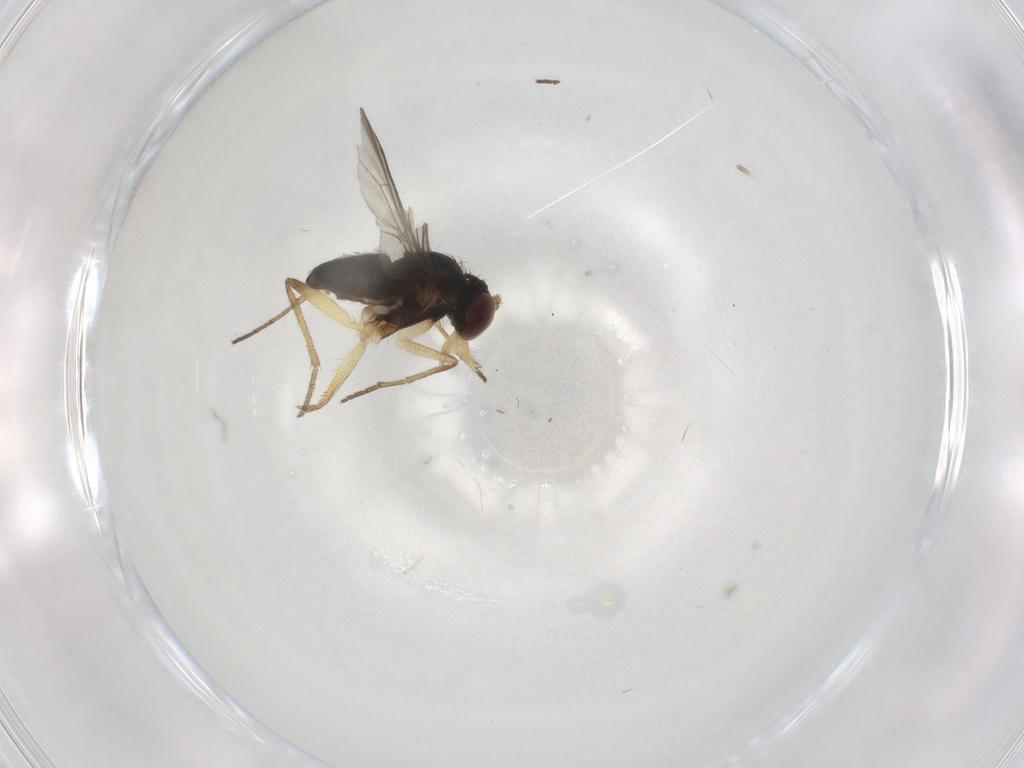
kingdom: Animalia
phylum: Arthropoda
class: Insecta
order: Diptera
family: Dolichopodidae
